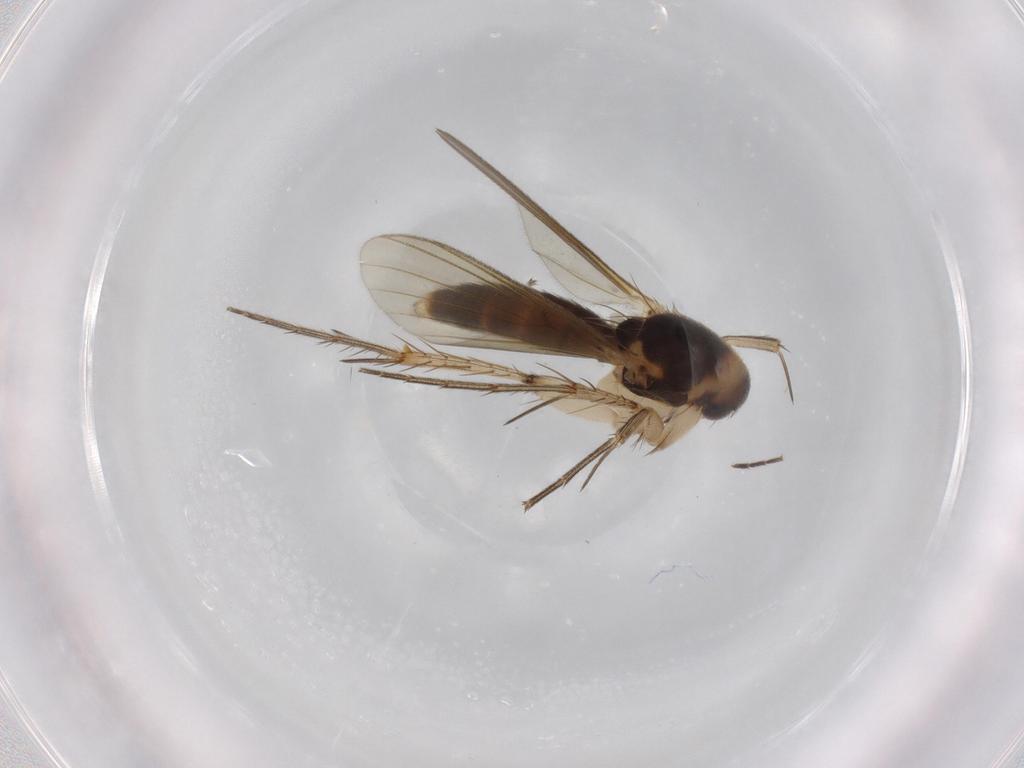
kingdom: Animalia
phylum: Arthropoda
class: Insecta
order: Diptera
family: Mycetophilidae
